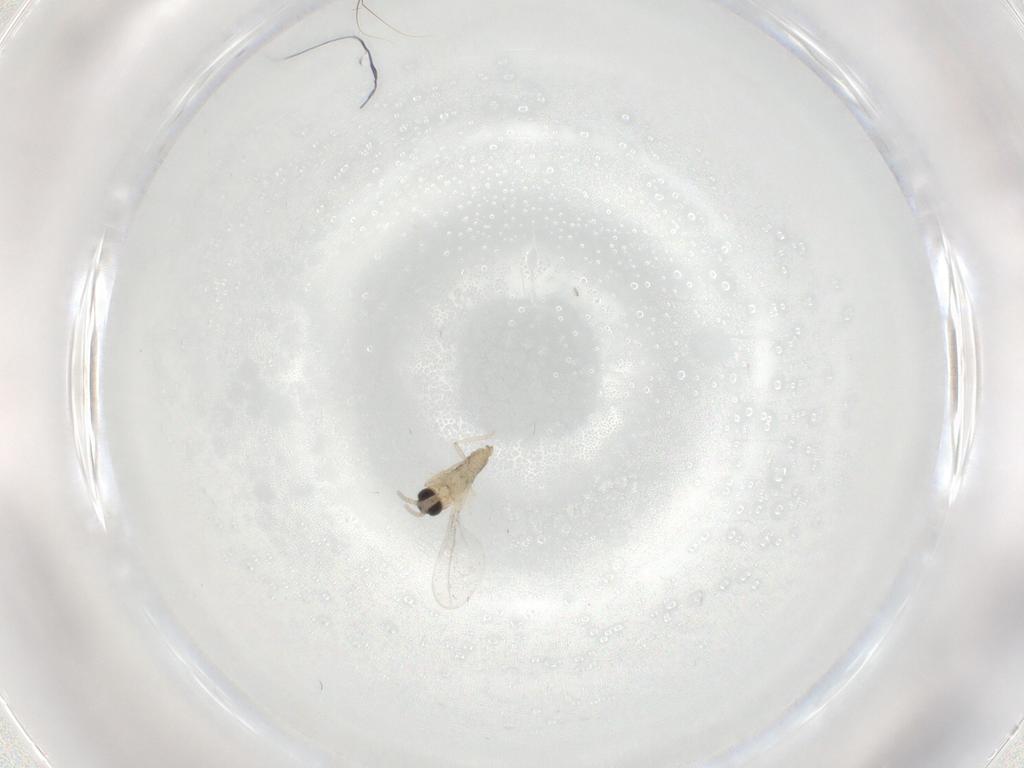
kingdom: Animalia
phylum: Arthropoda
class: Insecta
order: Diptera
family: Cecidomyiidae
